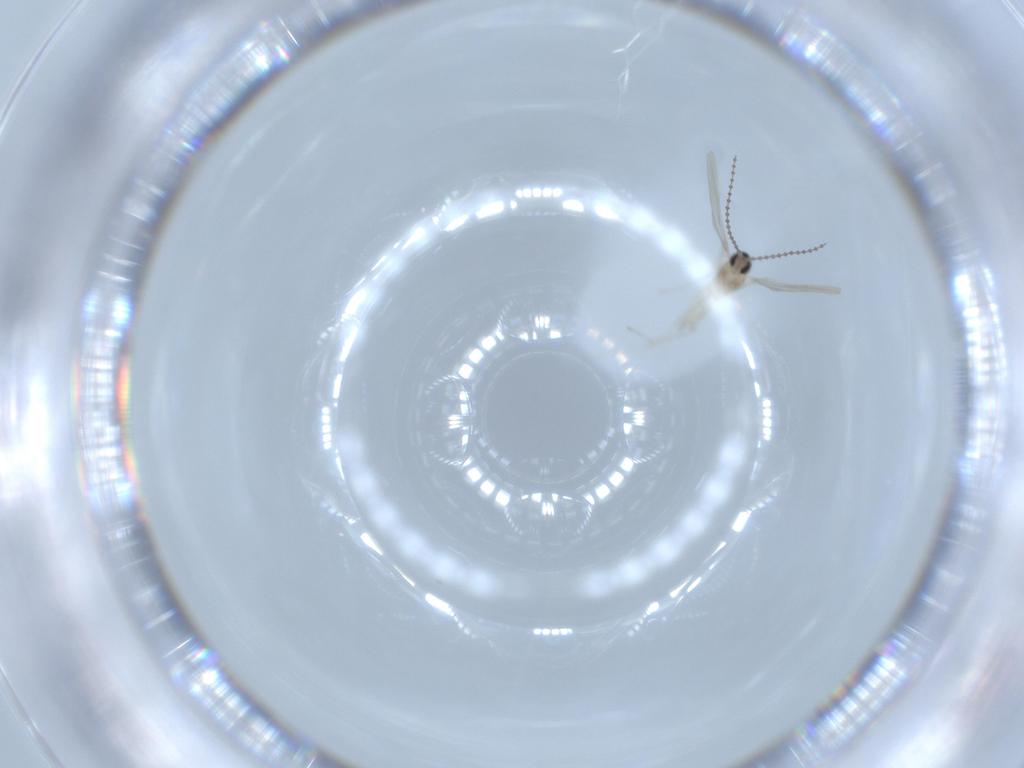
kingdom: Animalia
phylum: Arthropoda
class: Insecta
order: Diptera
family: Cecidomyiidae
